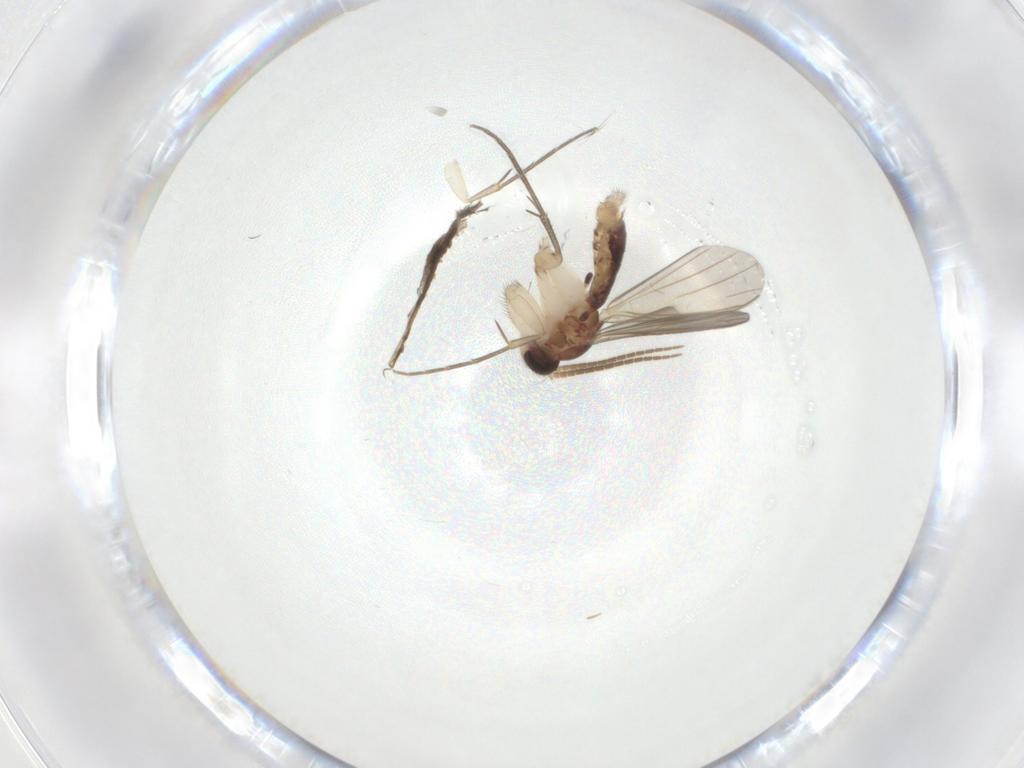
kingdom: Animalia
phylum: Arthropoda
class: Insecta
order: Diptera
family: Mycetophilidae
